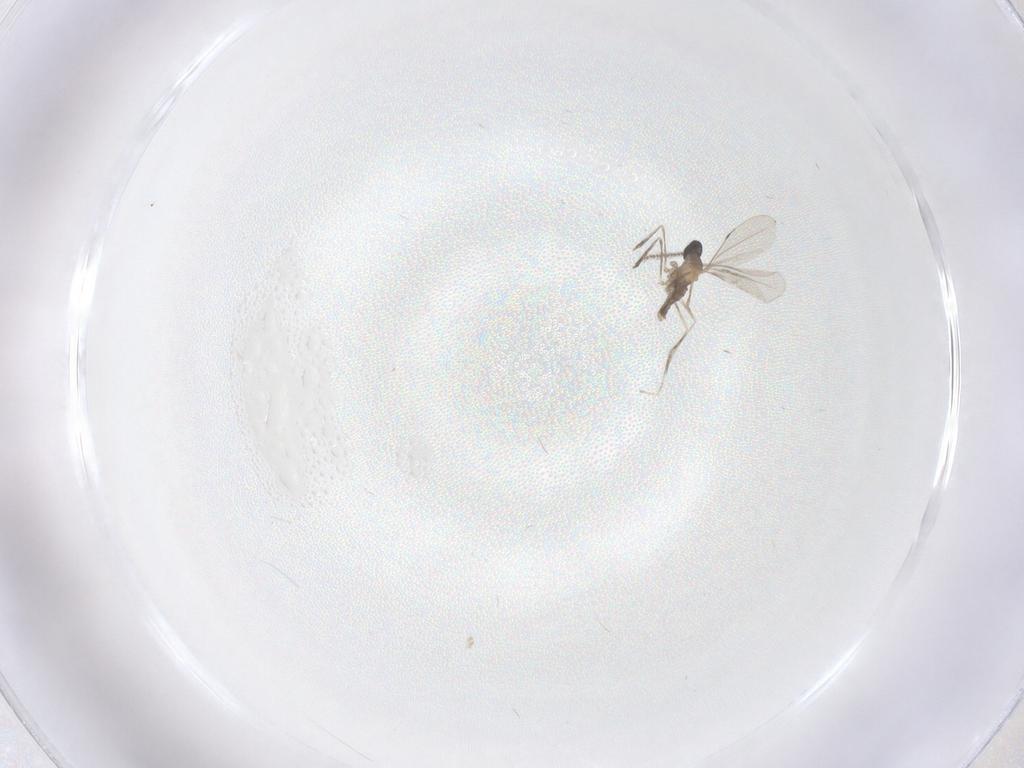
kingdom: Animalia
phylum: Arthropoda
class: Insecta
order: Diptera
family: Cecidomyiidae
